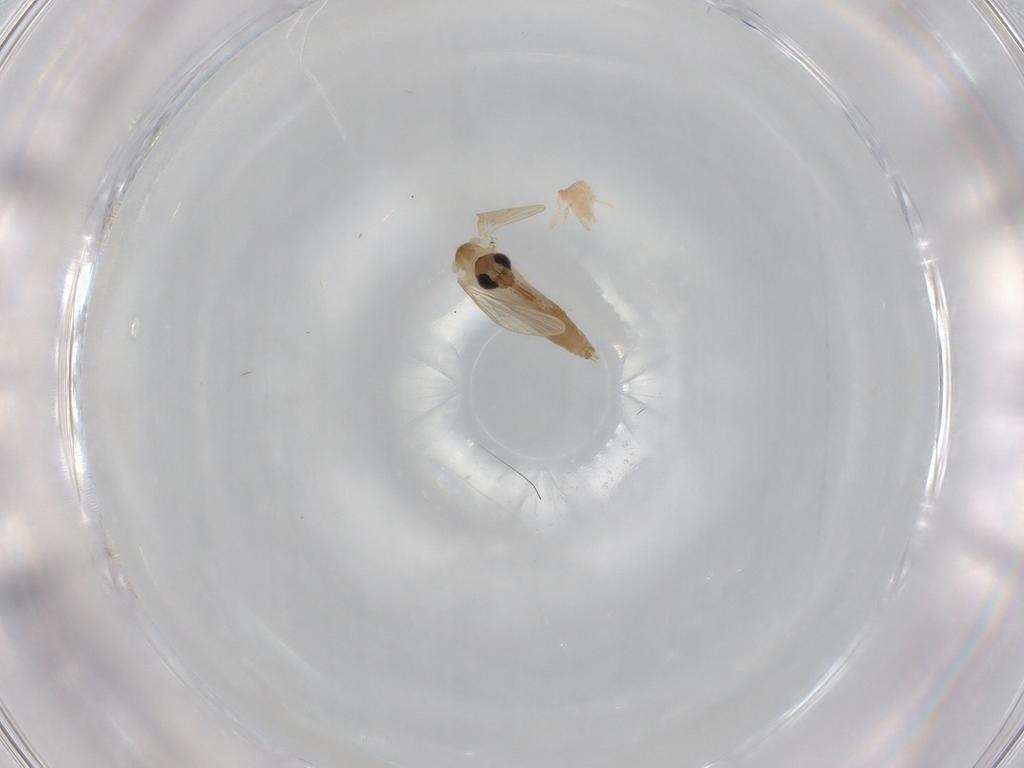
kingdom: Animalia
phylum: Arthropoda
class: Insecta
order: Diptera
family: Psychodidae
